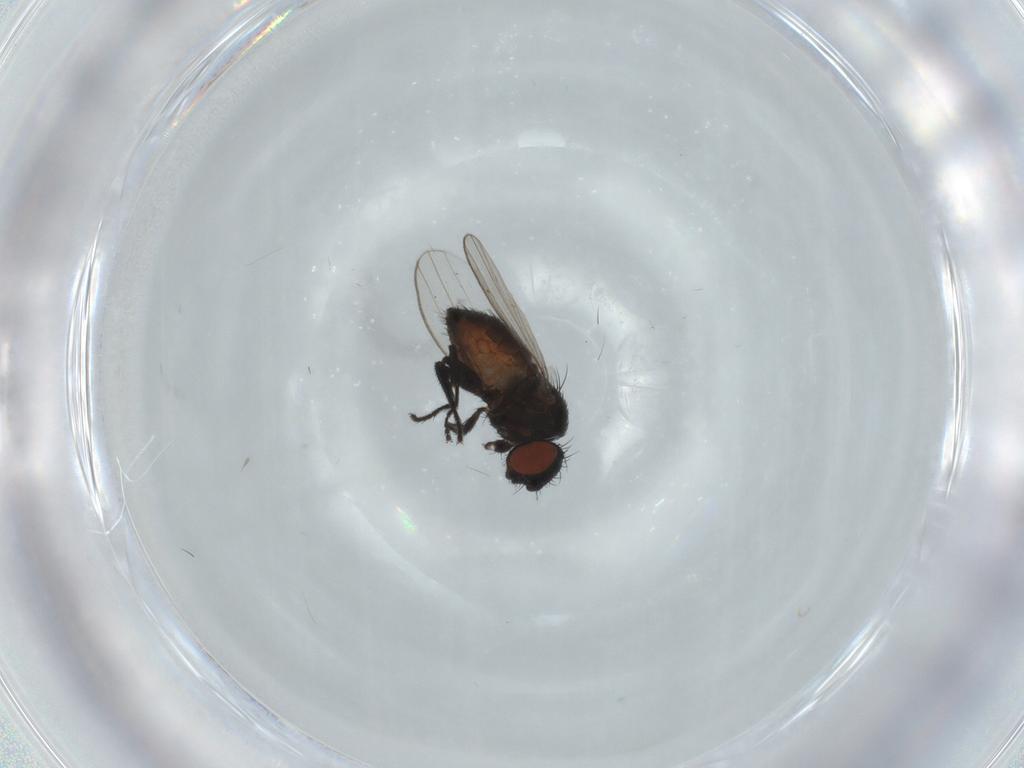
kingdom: Animalia
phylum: Arthropoda
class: Insecta
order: Diptera
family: Milichiidae
